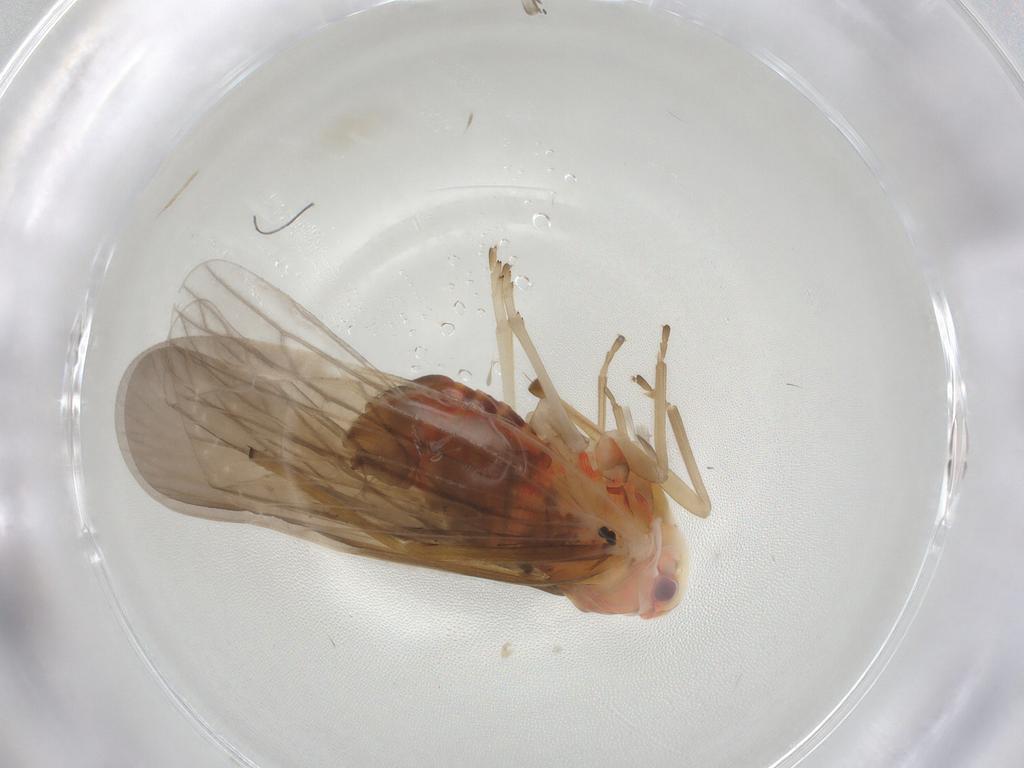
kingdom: Animalia
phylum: Arthropoda
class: Insecta
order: Hemiptera
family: Derbidae
